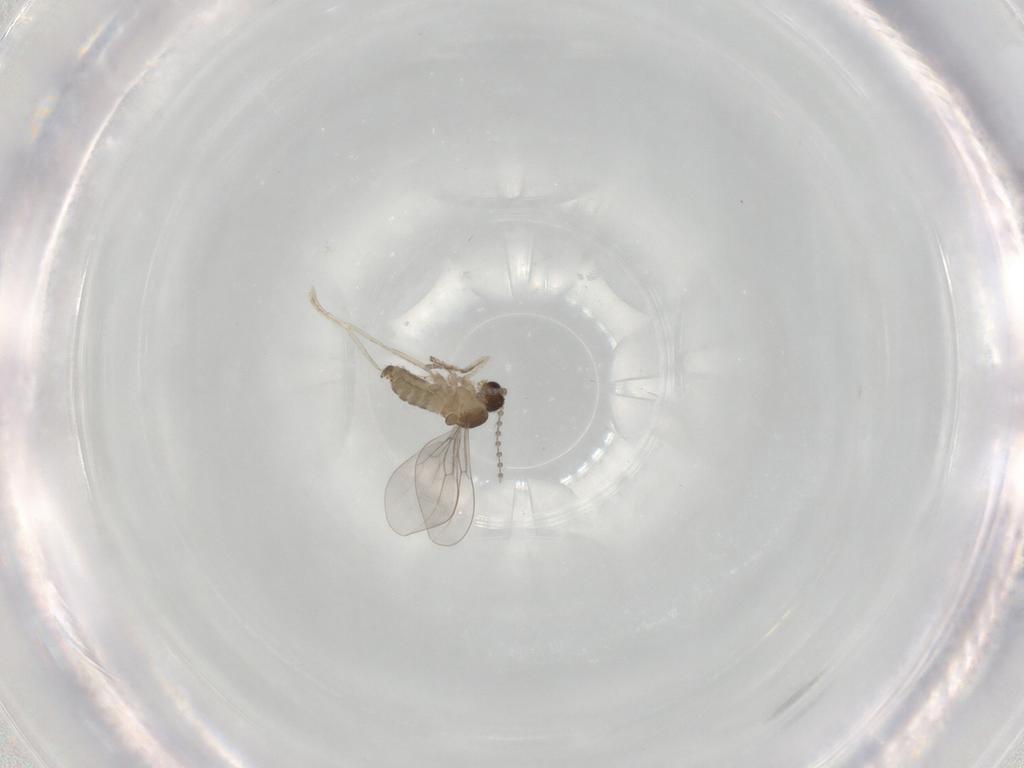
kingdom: Animalia
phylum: Arthropoda
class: Insecta
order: Diptera
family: Cecidomyiidae
